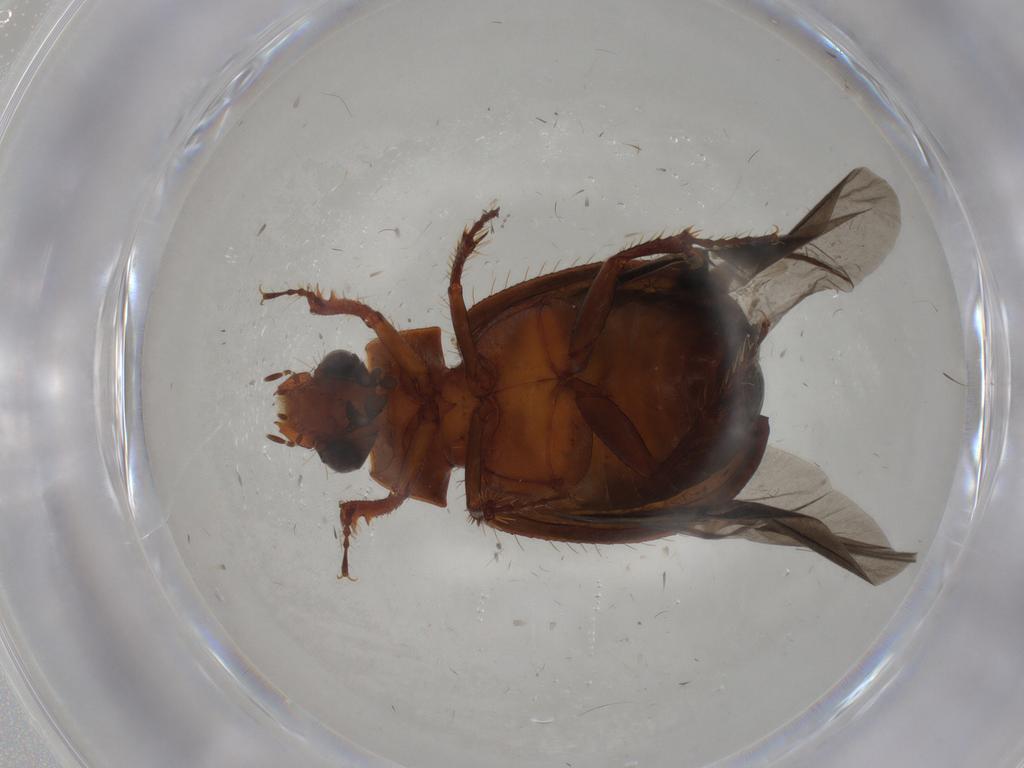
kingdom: Animalia
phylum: Arthropoda
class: Insecta
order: Coleoptera
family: Ptilodactylidae
